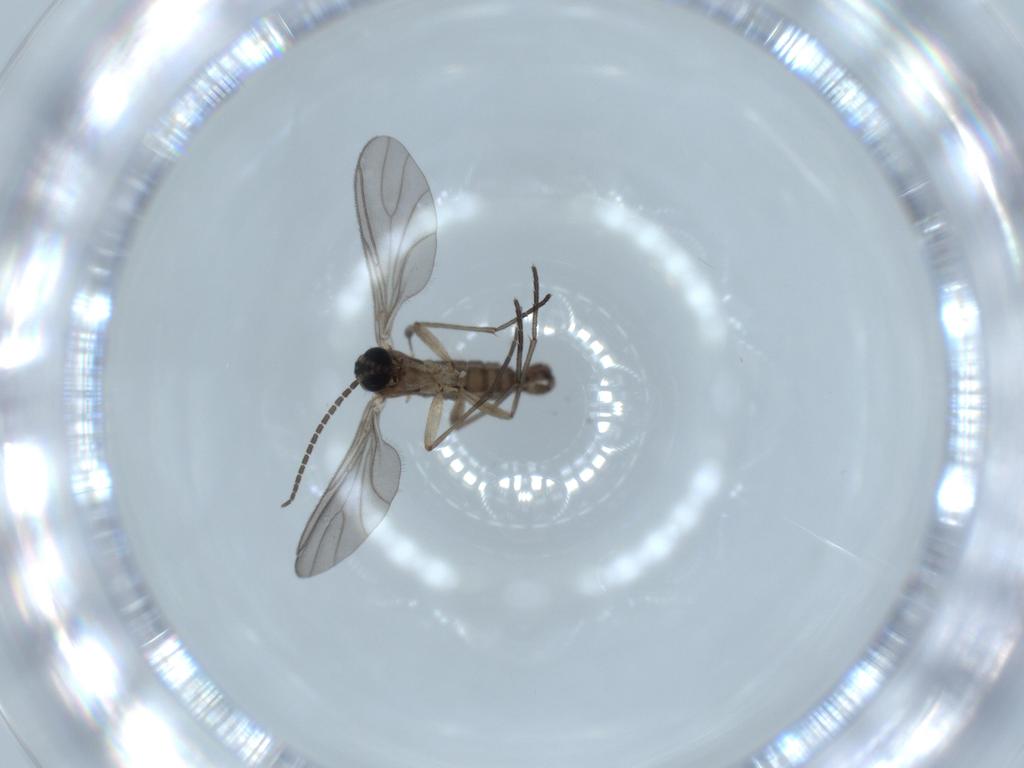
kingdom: Animalia
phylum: Arthropoda
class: Insecta
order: Diptera
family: Sciaridae
